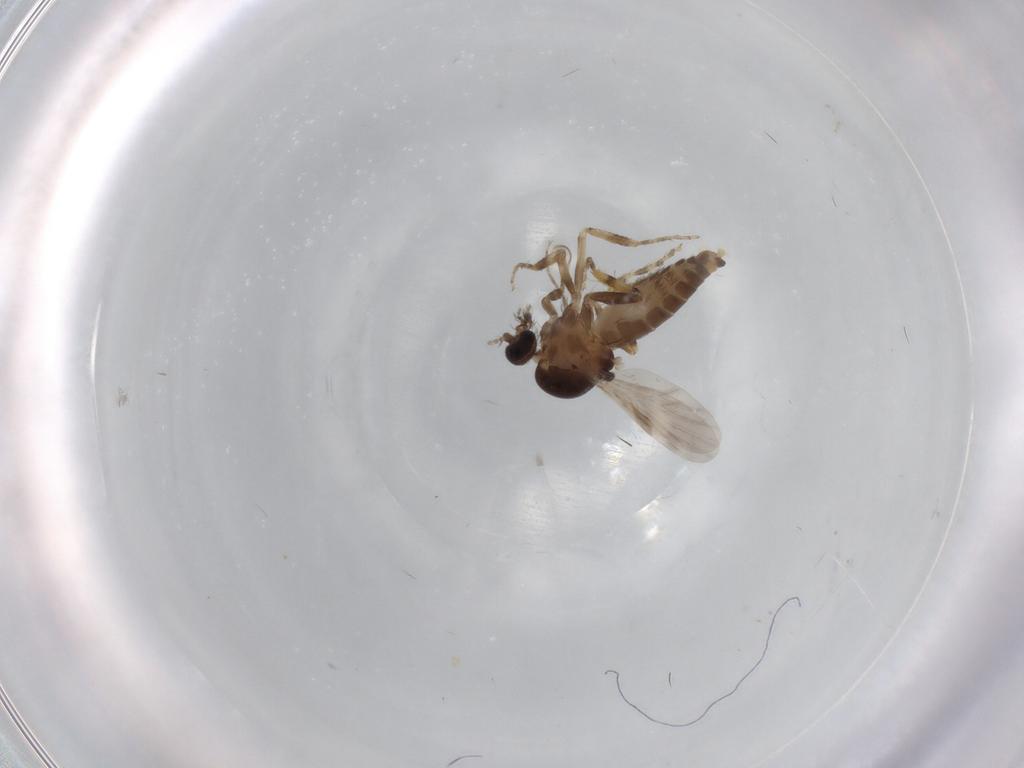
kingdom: Animalia
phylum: Arthropoda
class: Insecta
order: Diptera
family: Ceratopogonidae
